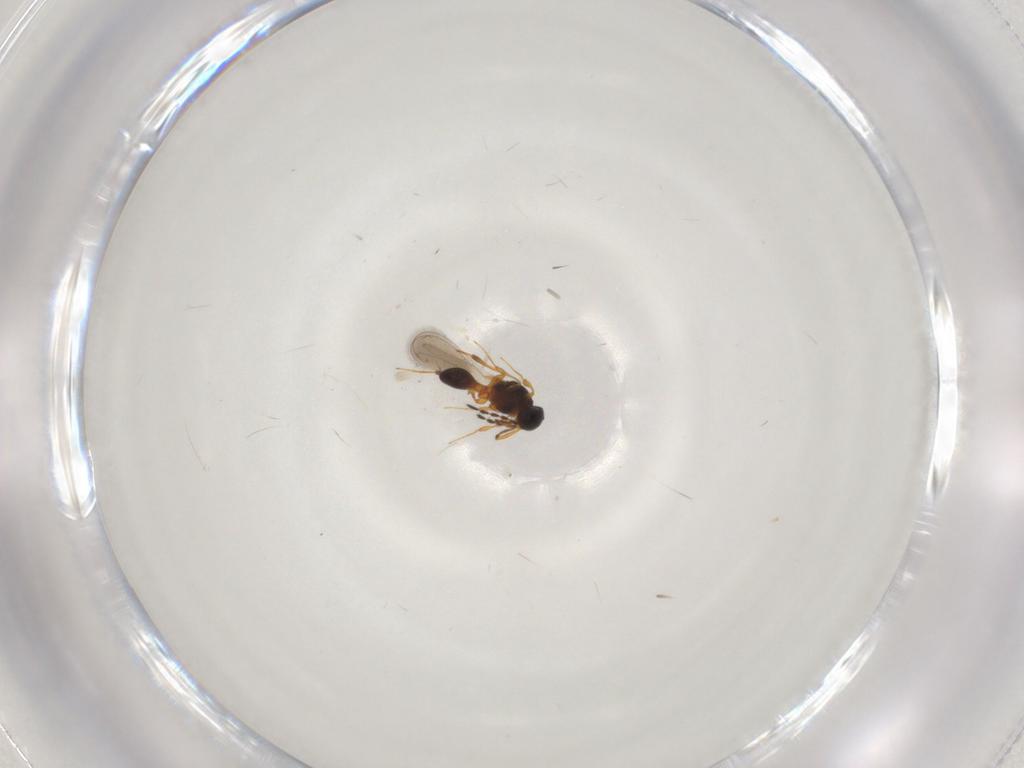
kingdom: Animalia
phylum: Arthropoda
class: Insecta
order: Hymenoptera
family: Platygastridae
